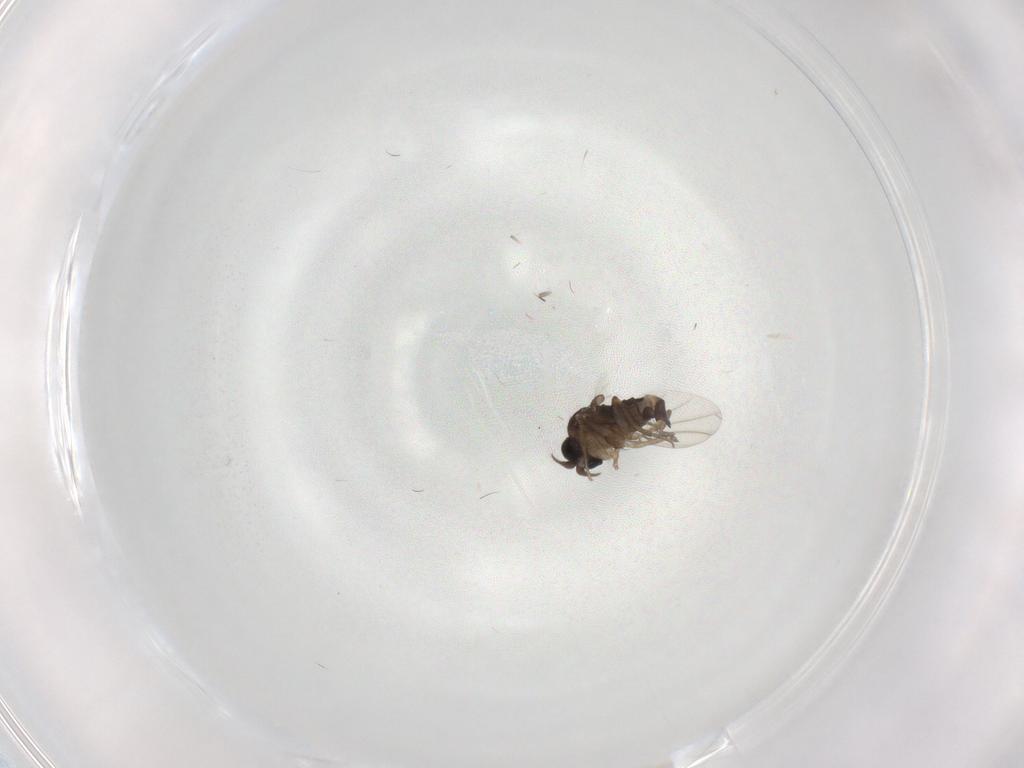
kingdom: Animalia
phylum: Arthropoda
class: Insecta
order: Diptera
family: Phoridae
